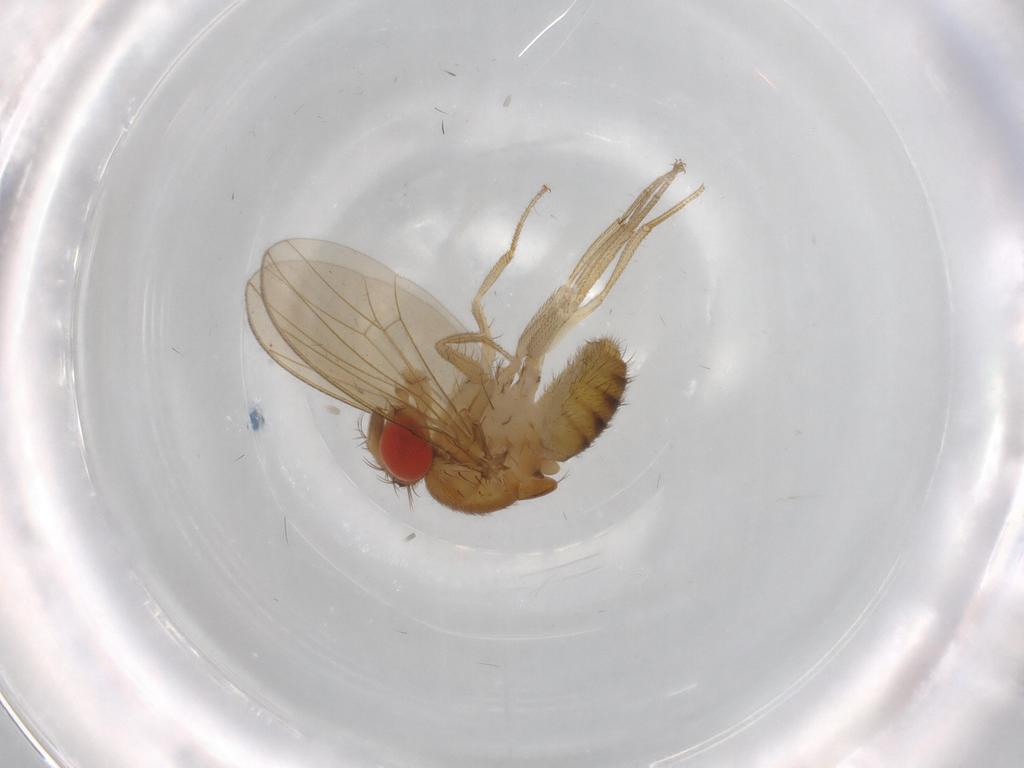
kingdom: Animalia
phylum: Arthropoda
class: Insecta
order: Diptera
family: Drosophilidae
